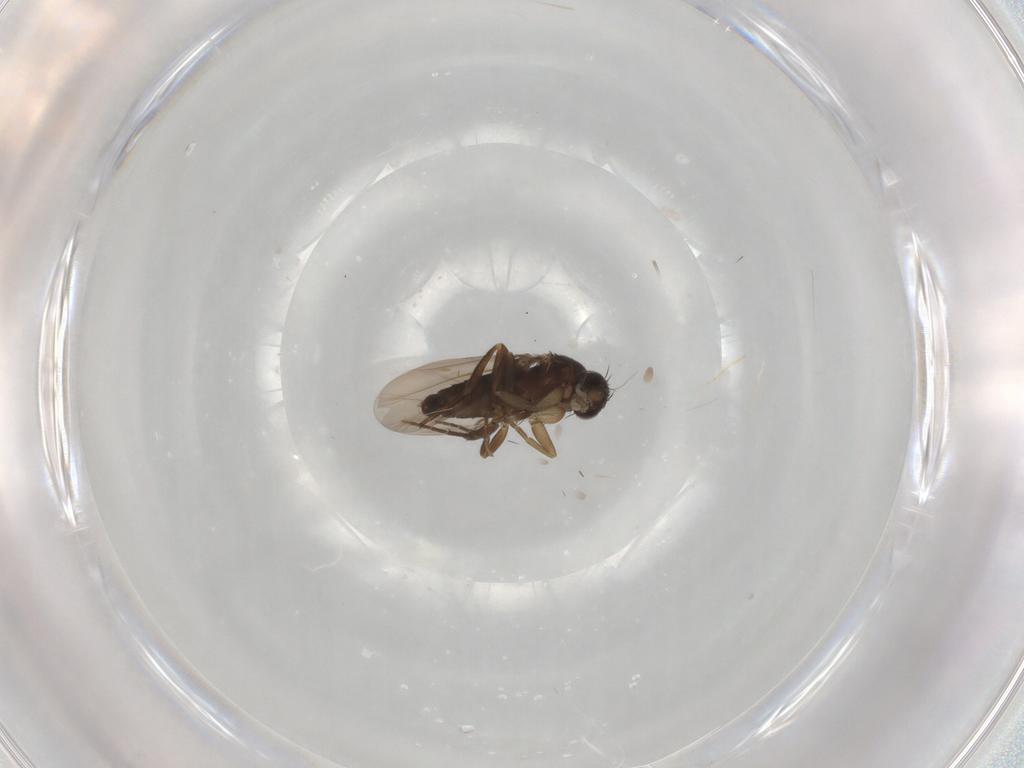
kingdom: Animalia
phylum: Arthropoda
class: Insecta
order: Diptera
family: Phoridae
